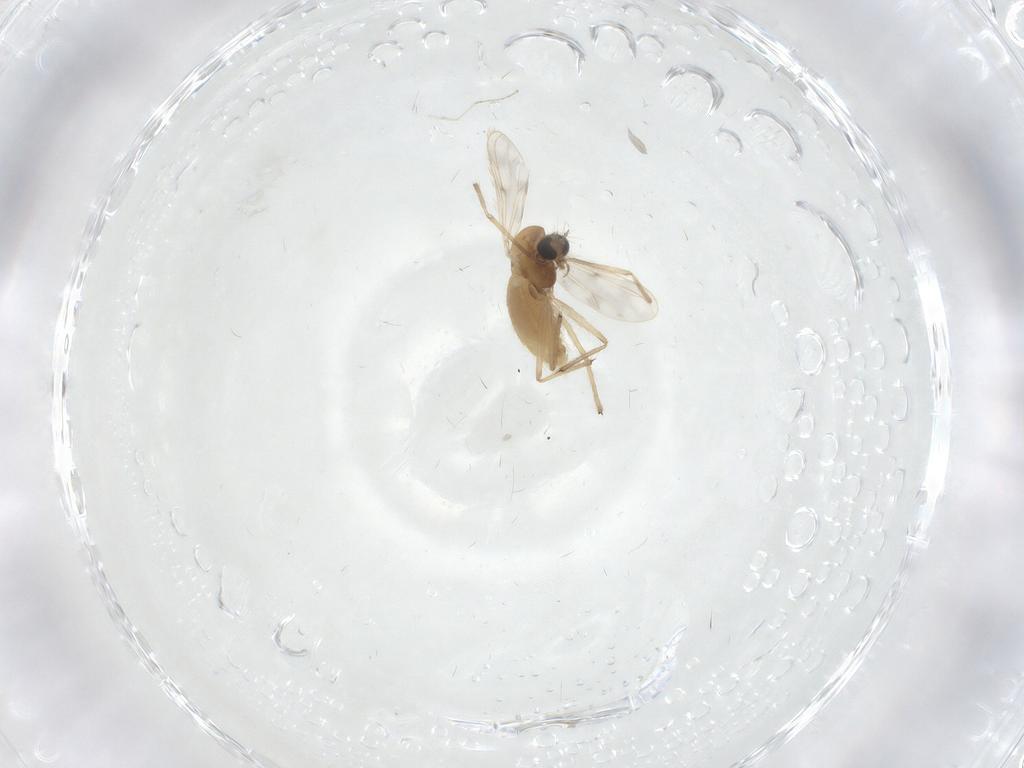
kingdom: Animalia
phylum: Arthropoda
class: Insecta
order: Diptera
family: Chironomidae
